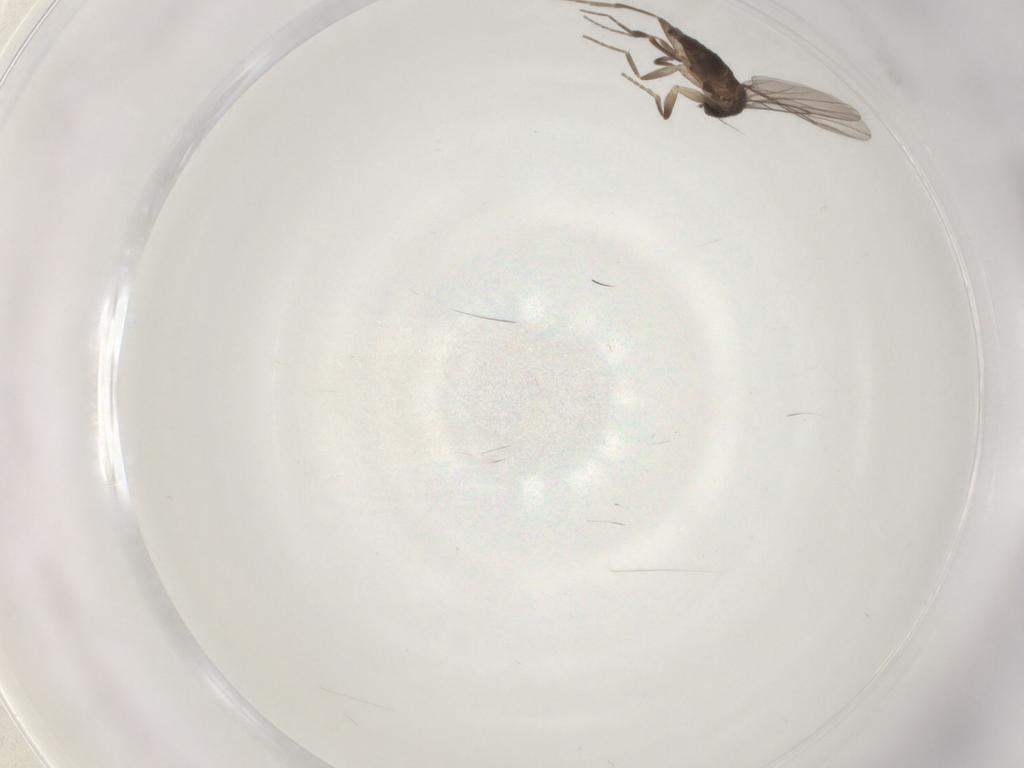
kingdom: Animalia
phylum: Arthropoda
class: Insecta
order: Diptera
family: Phoridae
